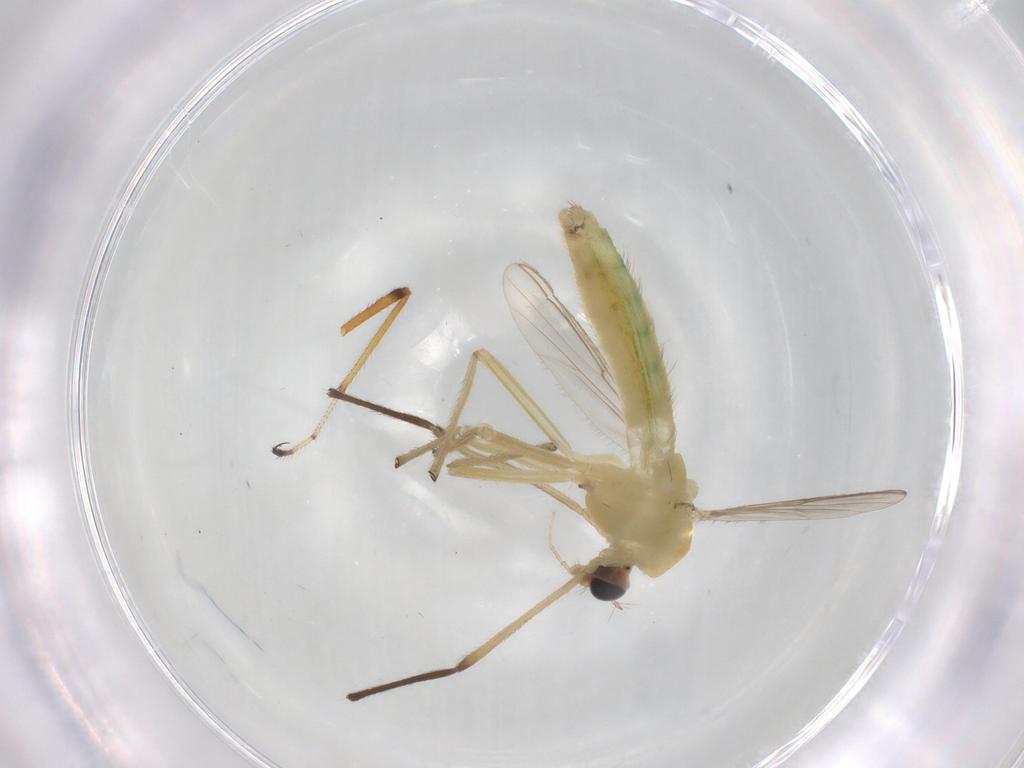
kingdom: Animalia
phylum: Arthropoda
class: Insecta
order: Diptera
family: Chironomidae
